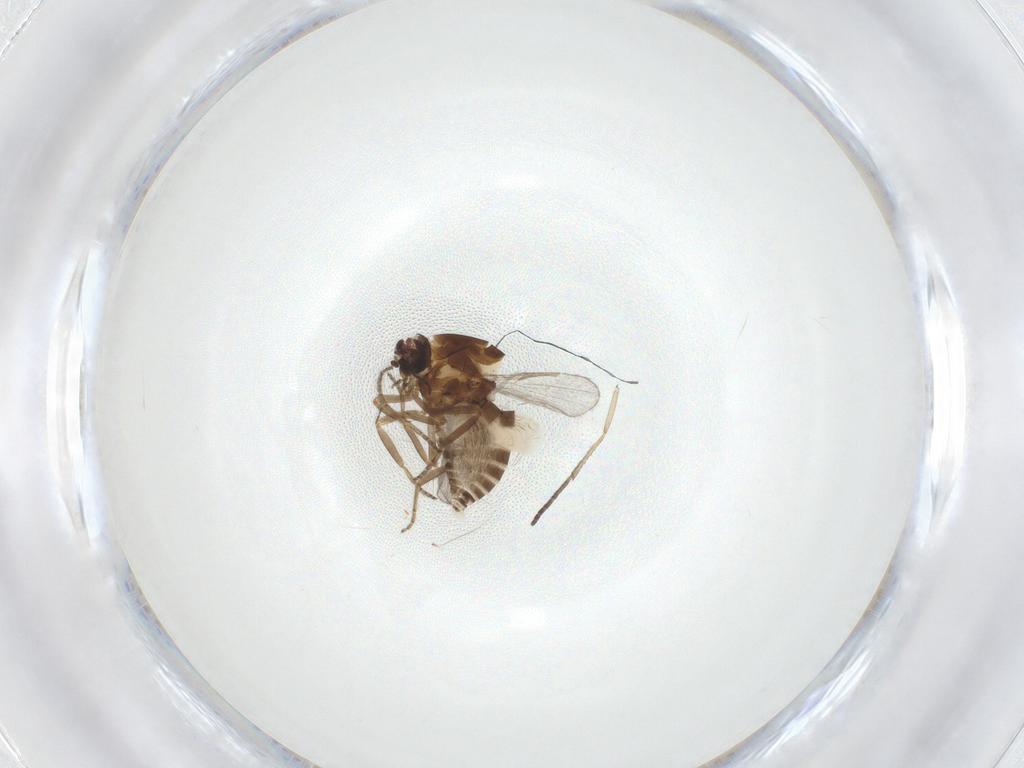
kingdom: Animalia
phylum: Arthropoda
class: Insecta
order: Diptera
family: Ceratopogonidae
